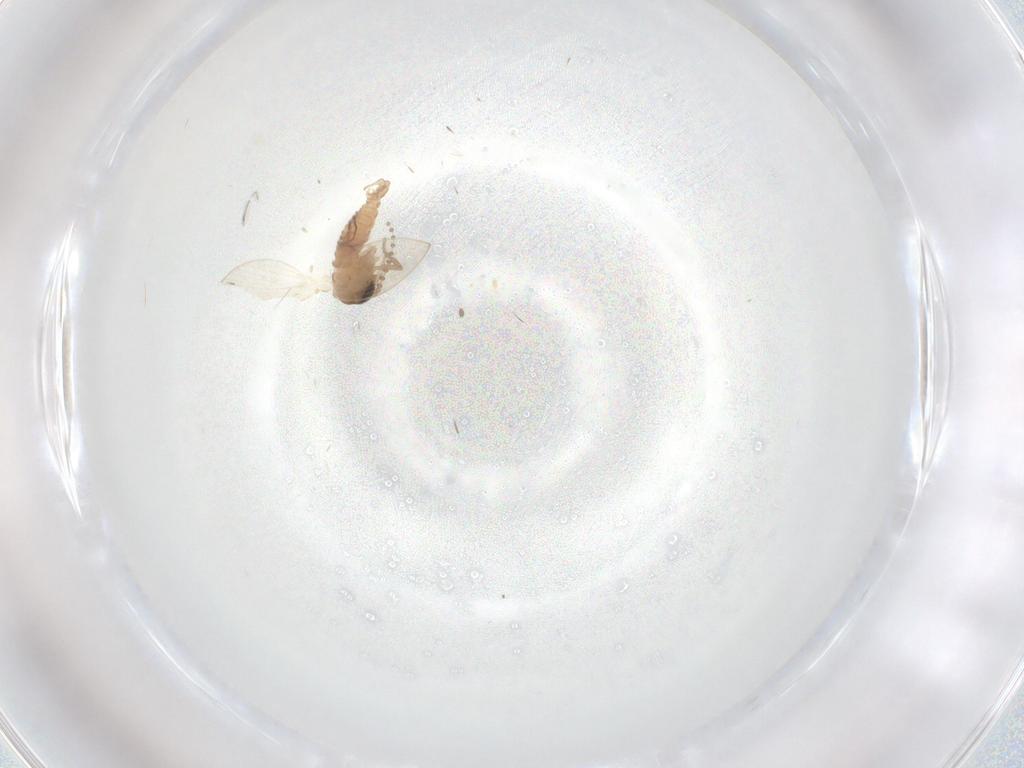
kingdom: Animalia
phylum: Arthropoda
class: Insecta
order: Diptera
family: Psychodidae
